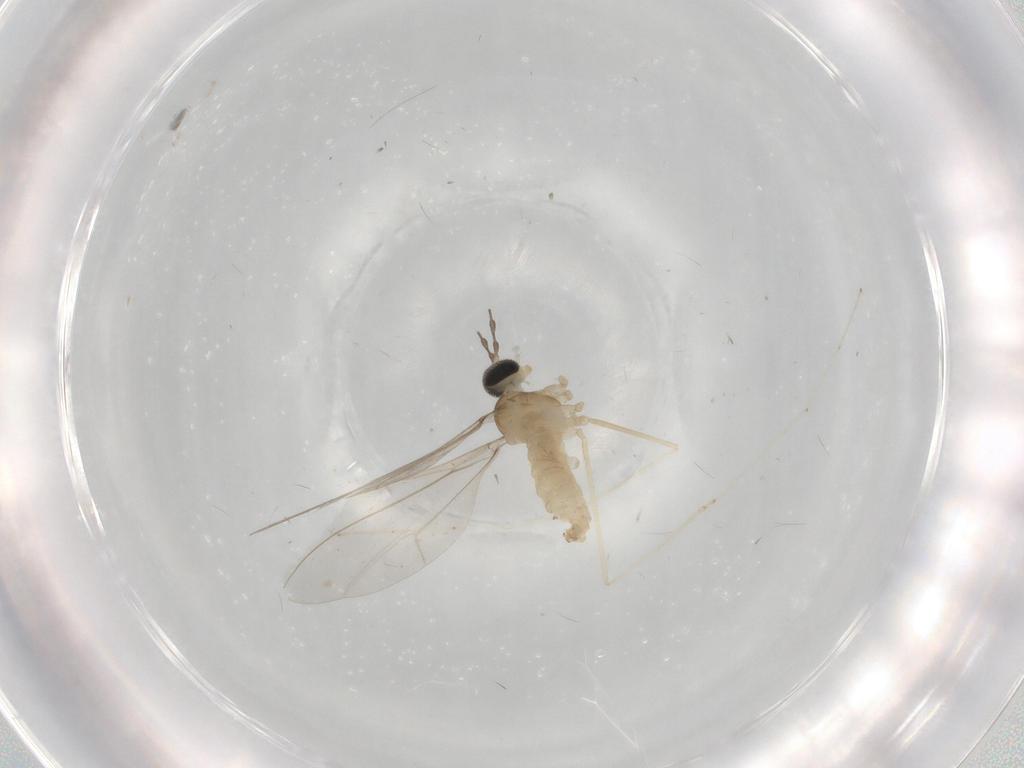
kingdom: Animalia
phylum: Arthropoda
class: Insecta
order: Diptera
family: Cecidomyiidae
